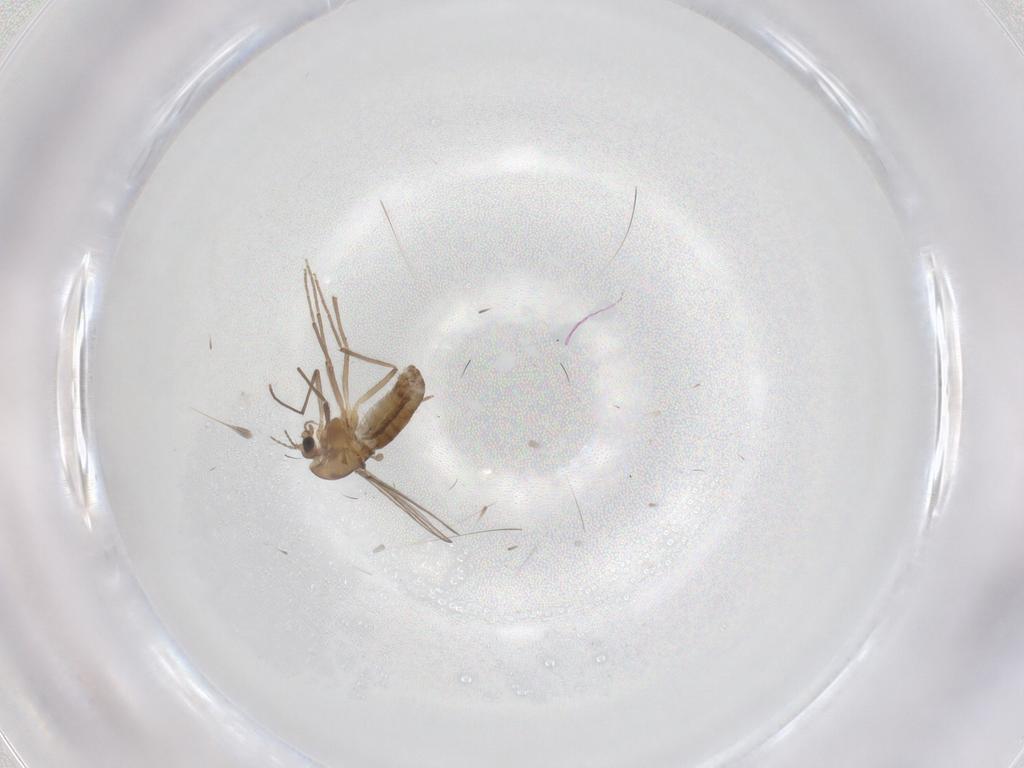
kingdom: Animalia
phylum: Arthropoda
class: Insecta
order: Diptera
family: Chironomidae
